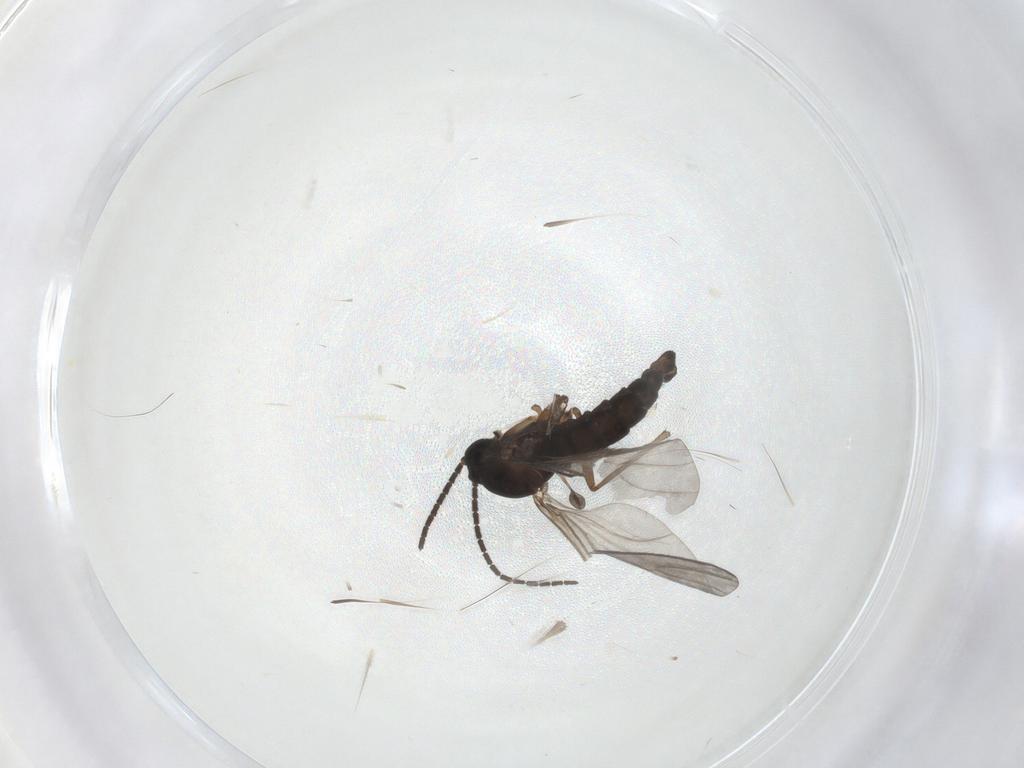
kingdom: Animalia
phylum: Arthropoda
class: Insecta
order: Diptera
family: Sciaridae
